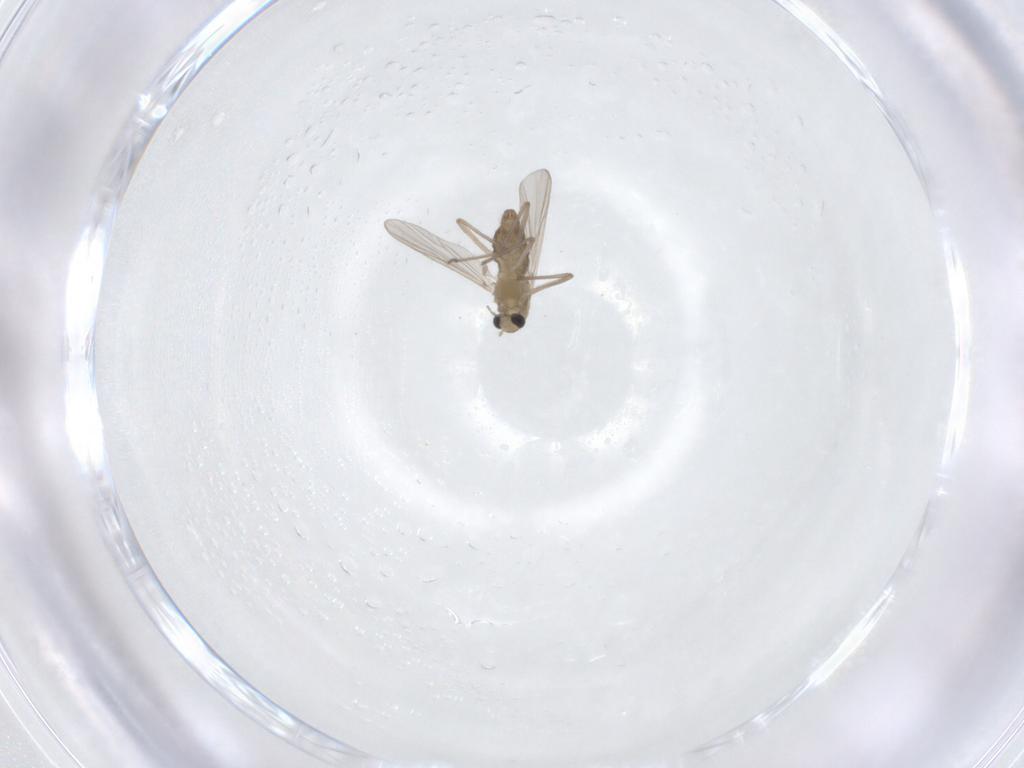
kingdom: Animalia
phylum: Arthropoda
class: Insecta
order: Diptera
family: Chironomidae
